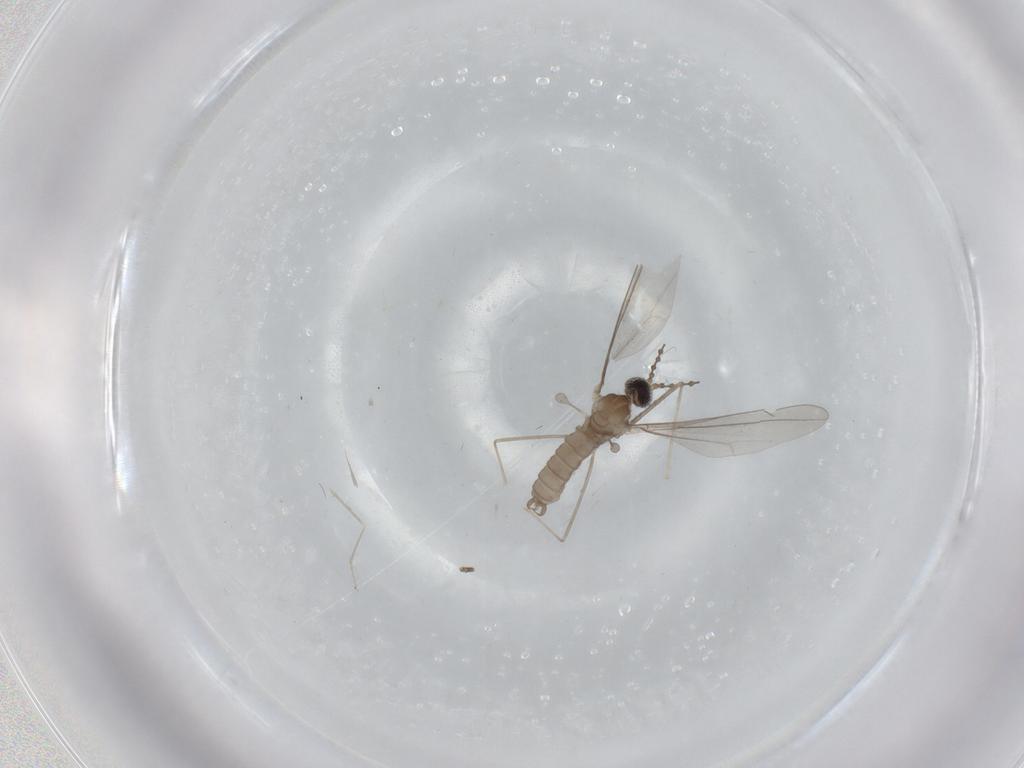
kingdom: Animalia
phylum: Arthropoda
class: Insecta
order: Diptera
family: Cecidomyiidae
